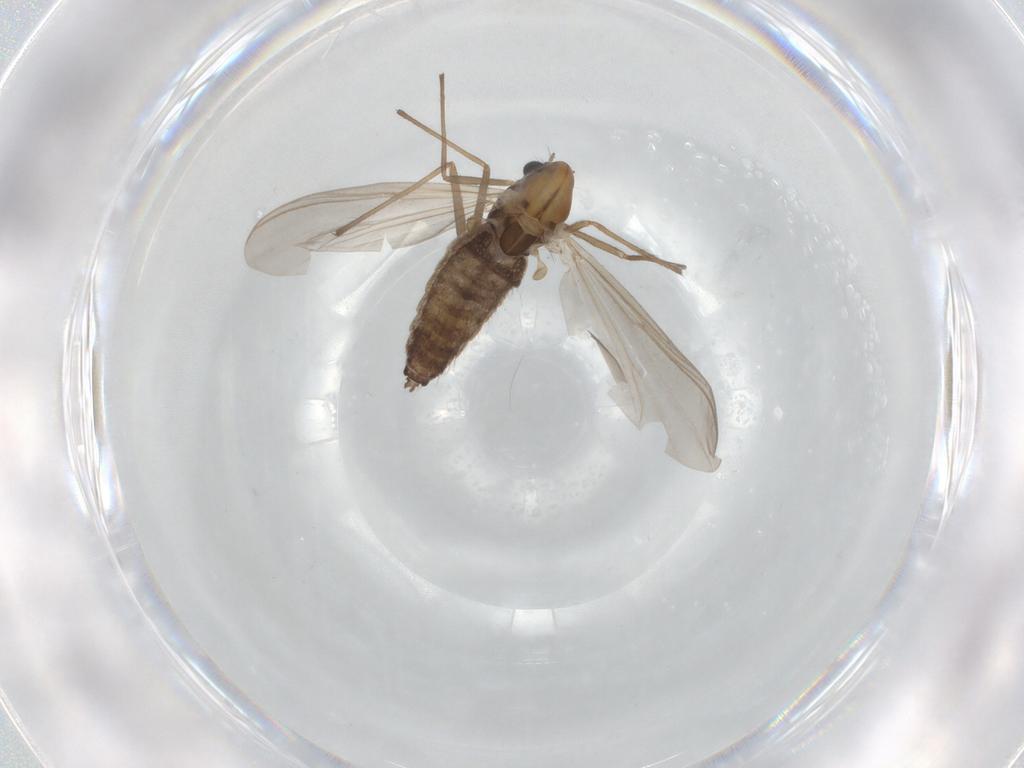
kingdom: Animalia
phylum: Arthropoda
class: Insecta
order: Diptera
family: Chironomidae
